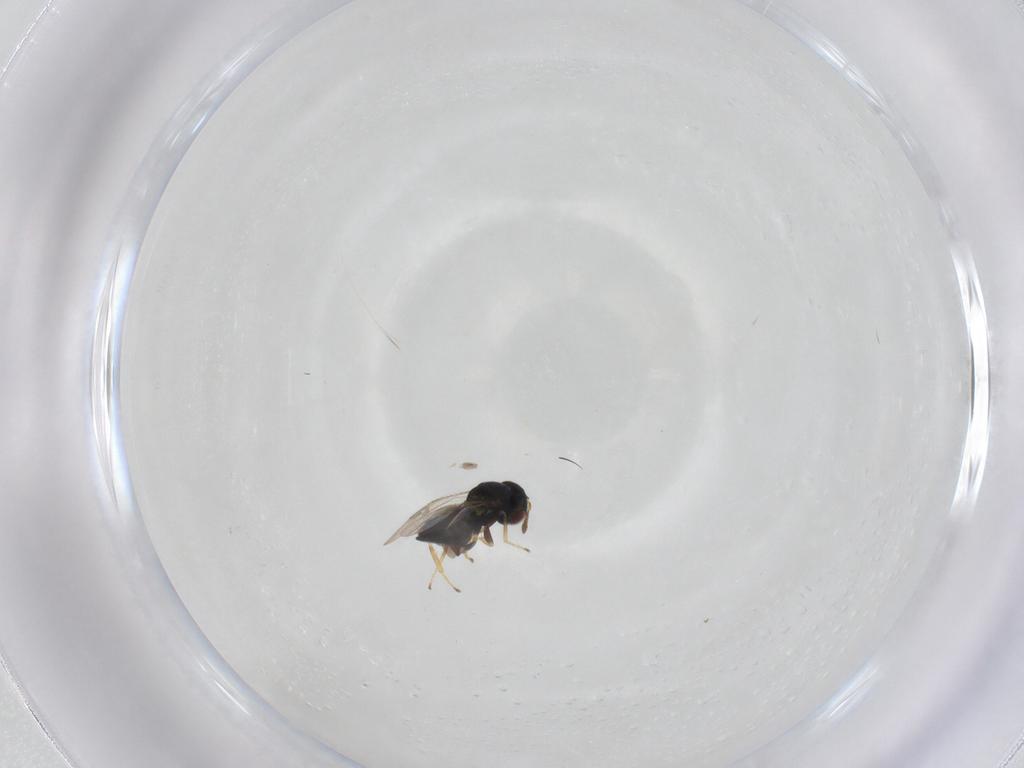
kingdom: Animalia
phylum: Arthropoda
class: Insecta
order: Hymenoptera
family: Pteromalidae
